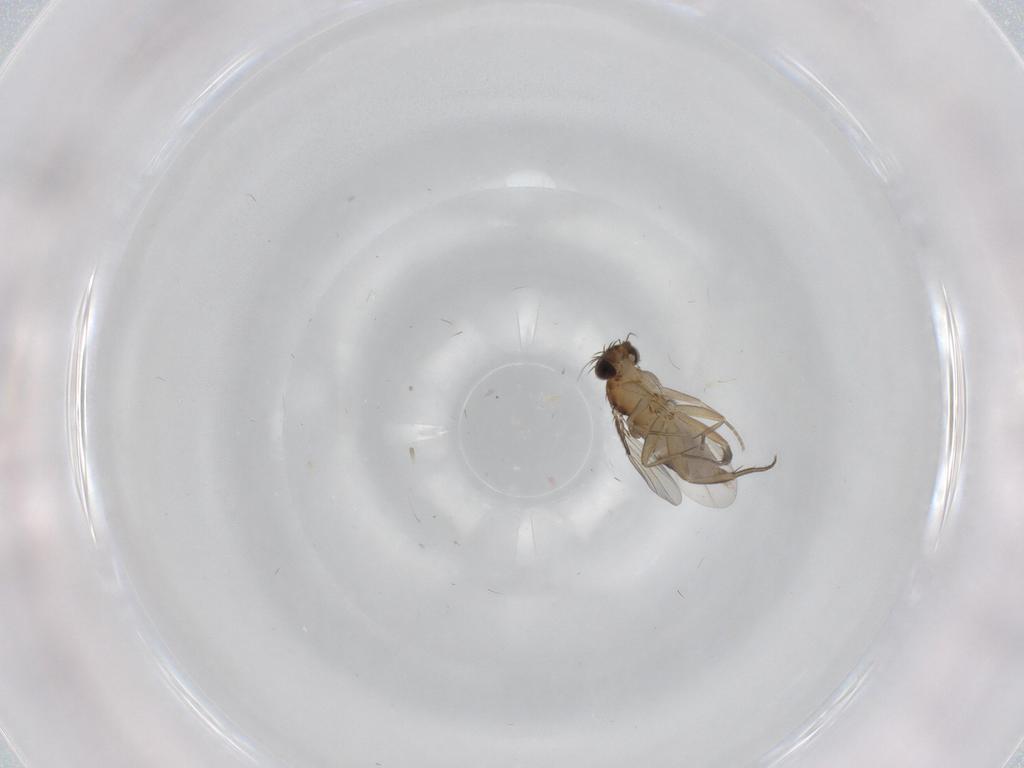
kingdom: Animalia
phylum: Arthropoda
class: Insecta
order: Diptera
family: Phoridae
